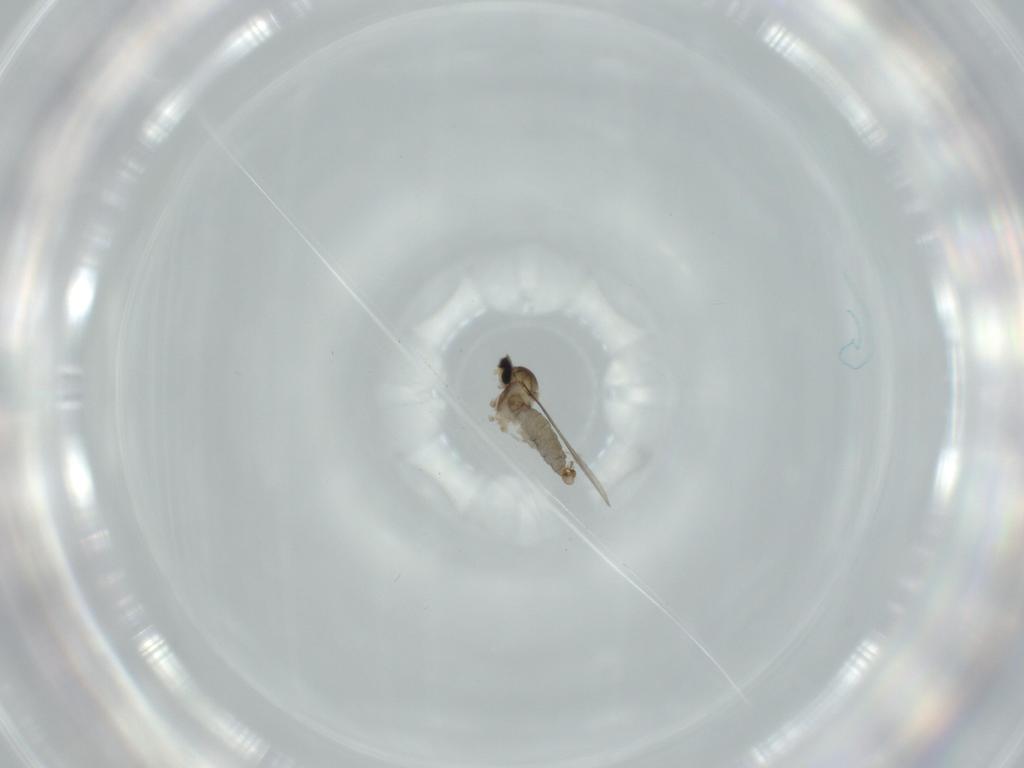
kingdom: Animalia
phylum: Arthropoda
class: Insecta
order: Diptera
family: Cecidomyiidae
